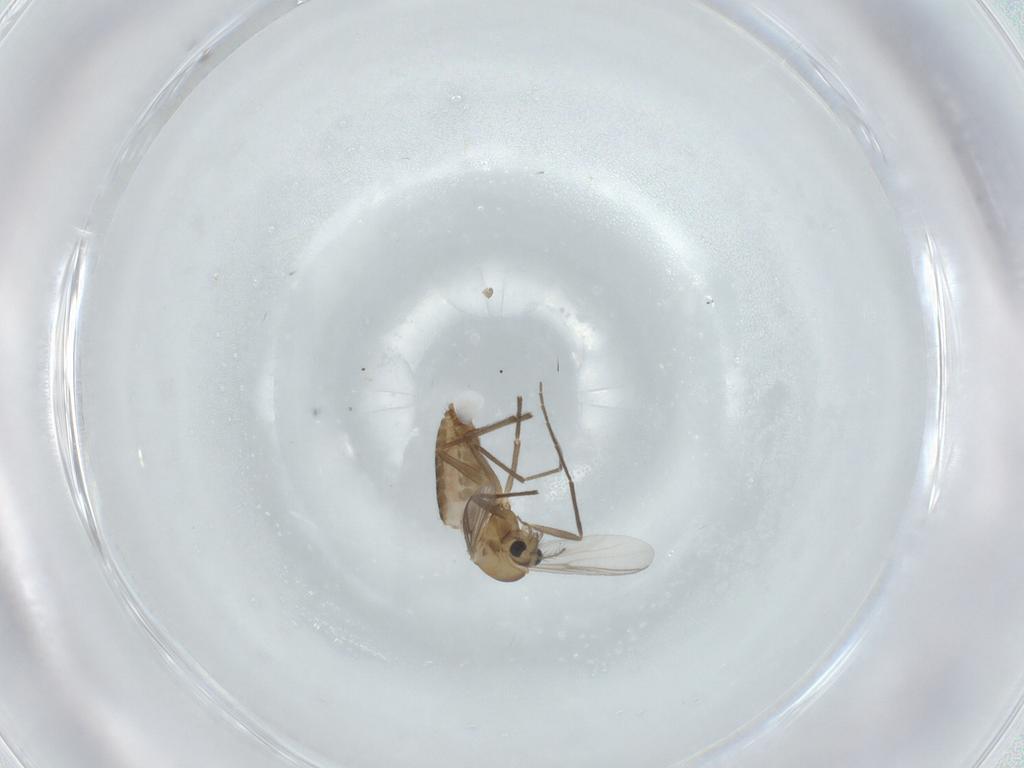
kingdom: Animalia
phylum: Arthropoda
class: Insecta
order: Diptera
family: Chironomidae
